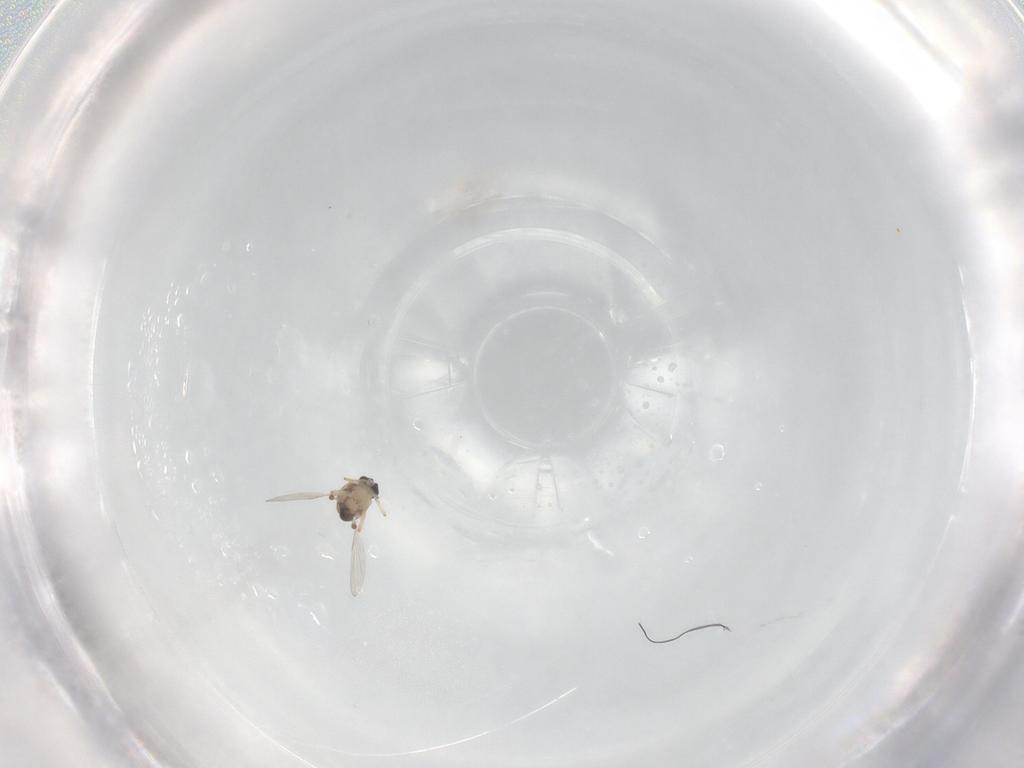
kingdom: Animalia
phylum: Arthropoda
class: Insecta
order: Diptera
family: Ceratopogonidae
